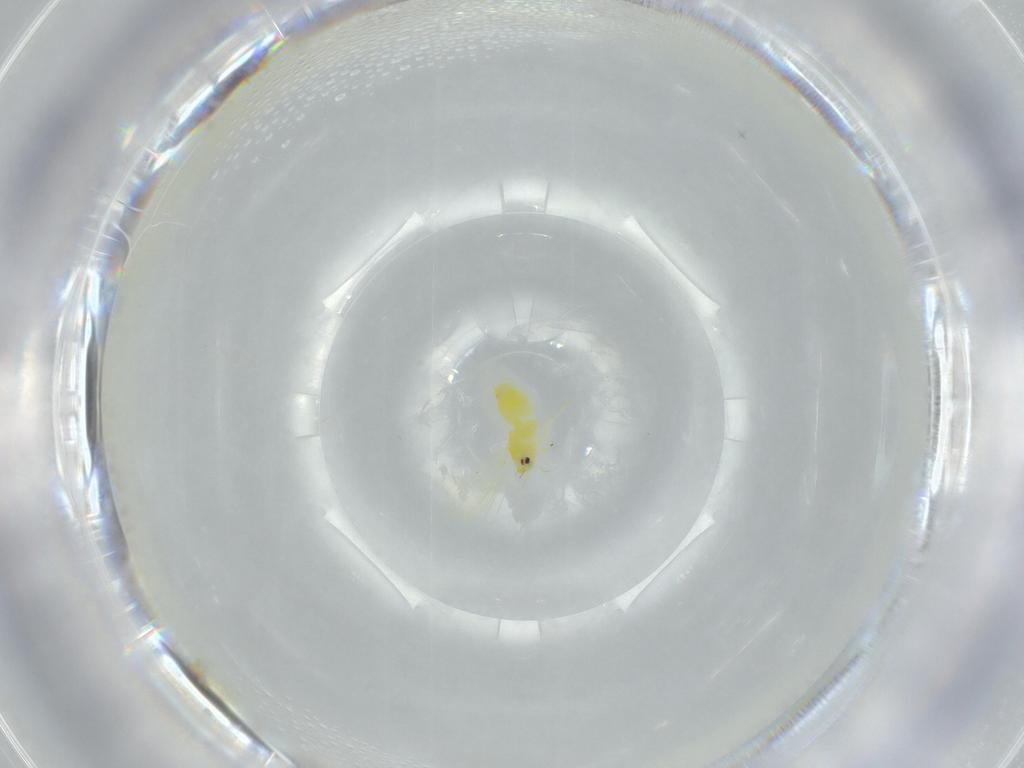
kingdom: Animalia
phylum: Arthropoda
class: Insecta
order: Hemiptera
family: Aleyrodidae
